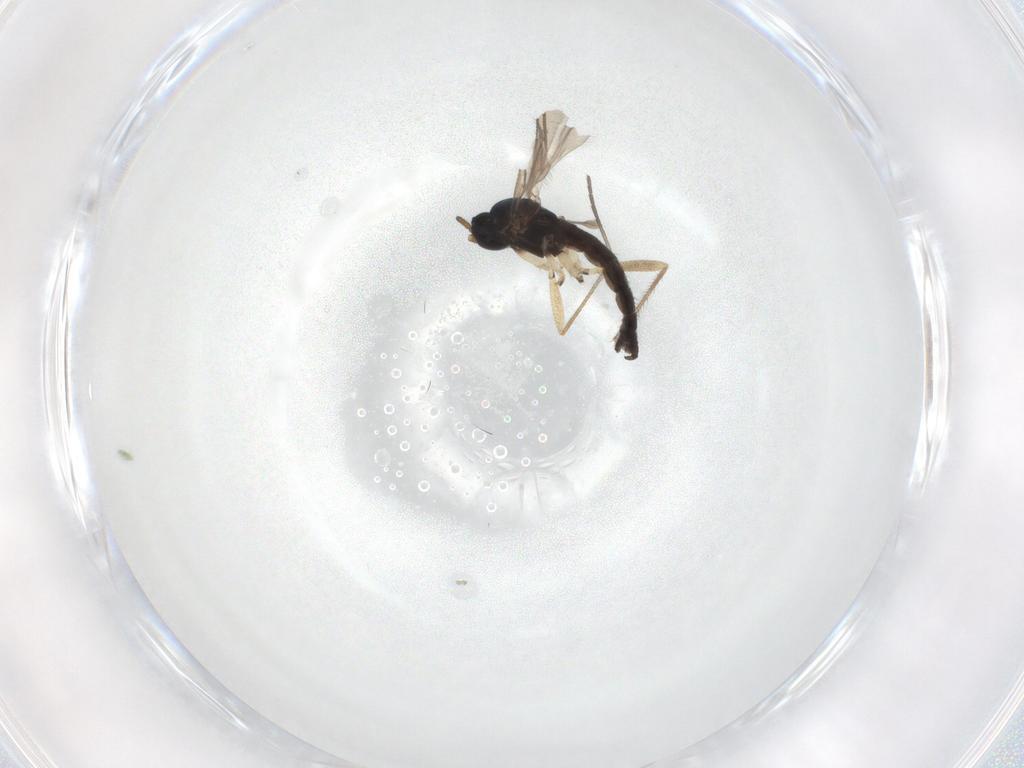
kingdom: Animalia
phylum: Arthropoda
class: Insecta
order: Diptera
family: Sciaridae
